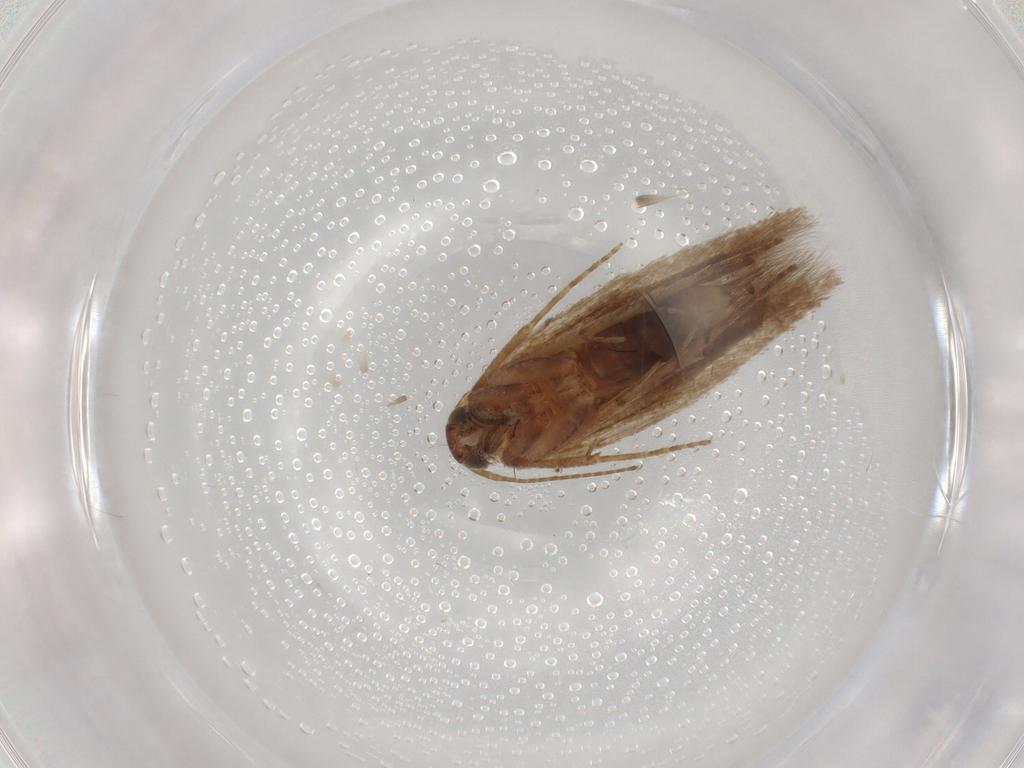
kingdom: Animalia
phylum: Arthropoda
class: Insecta
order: Lepidoptera
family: Gelechiidae
